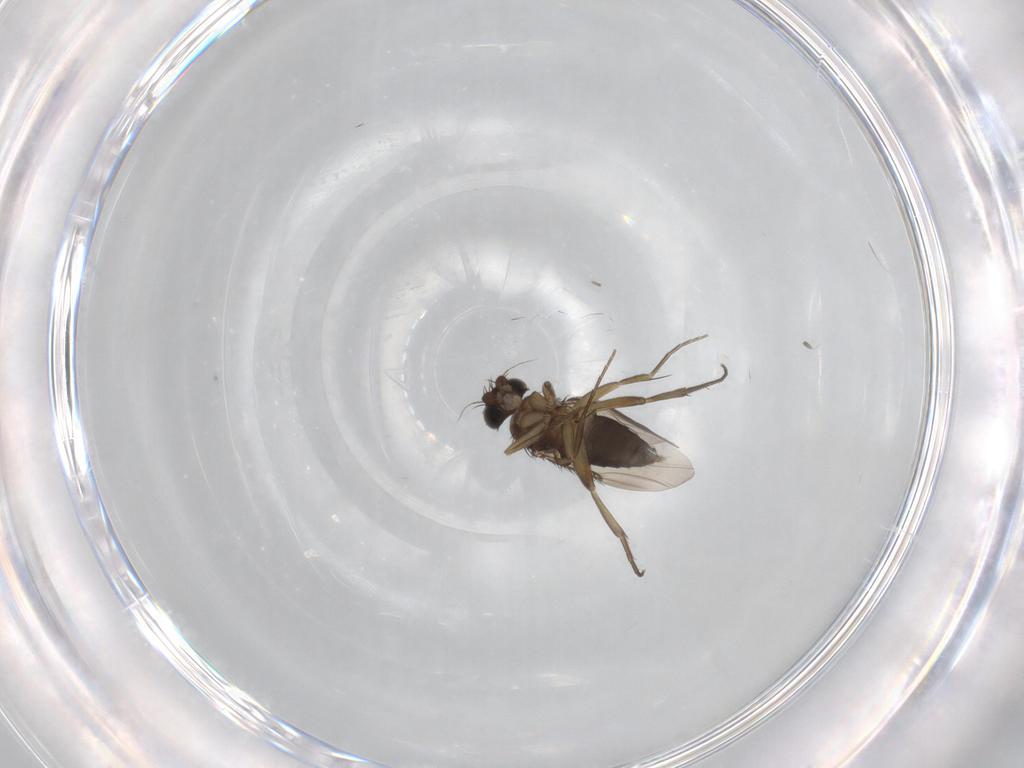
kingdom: Animalia
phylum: Arthropoda
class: Insecta
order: Diptera
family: Phoridae
